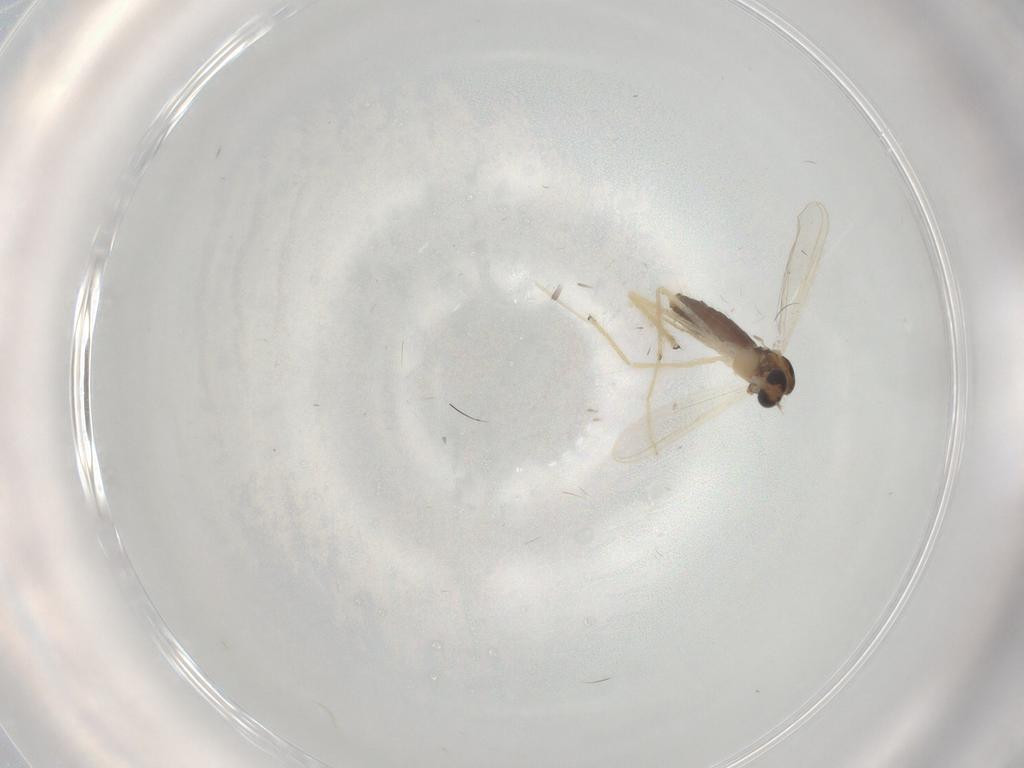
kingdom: Animalia
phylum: Arthropoda
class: Insecta
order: Diptera
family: Chironomidae
